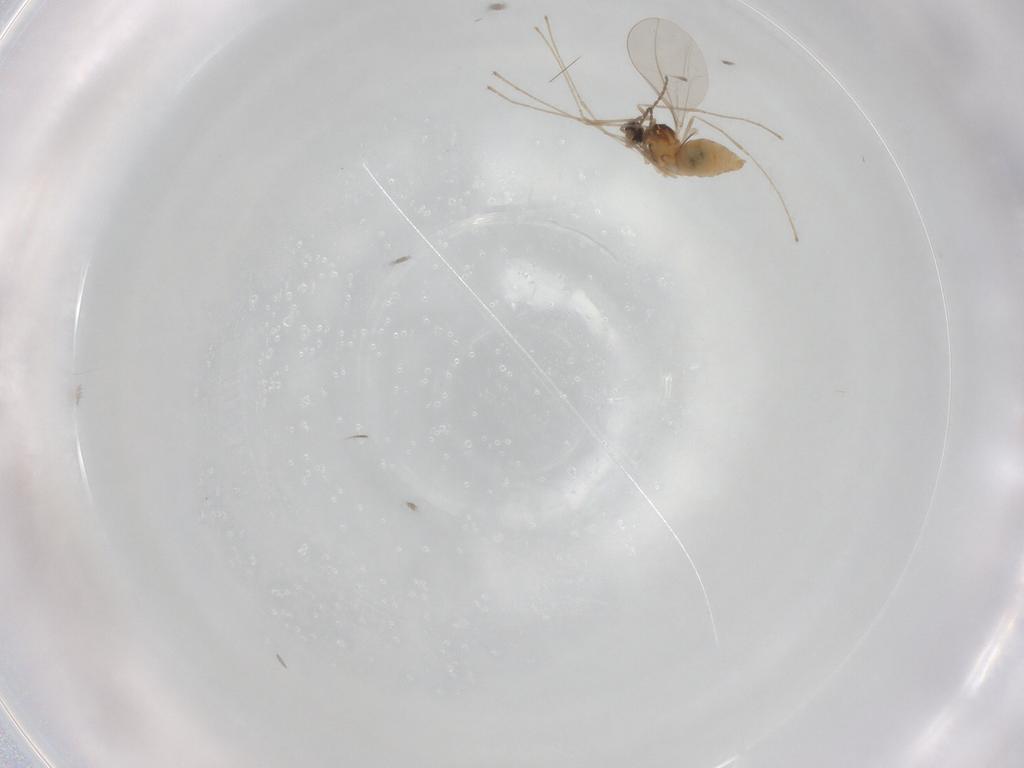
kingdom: Animalia
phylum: Arthropoda
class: Insecta
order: Diptera
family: Cecidomyiidae
